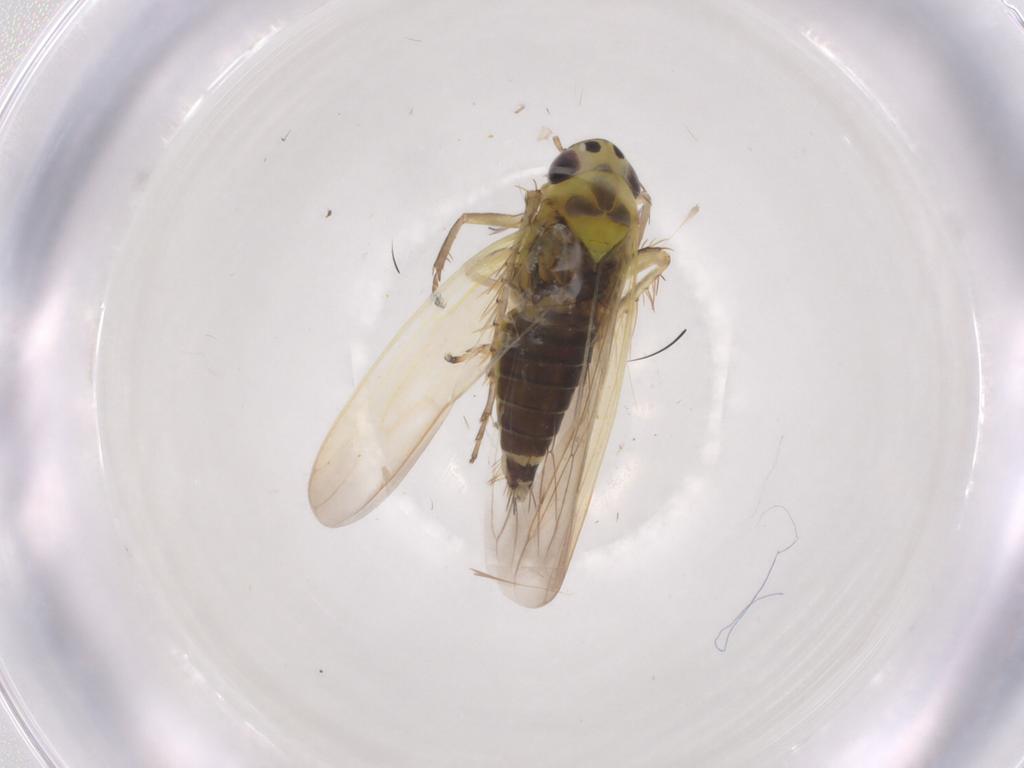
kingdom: Animalia
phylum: Arthropoda
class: Insecta
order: Hemiptera
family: Cicadellidae
